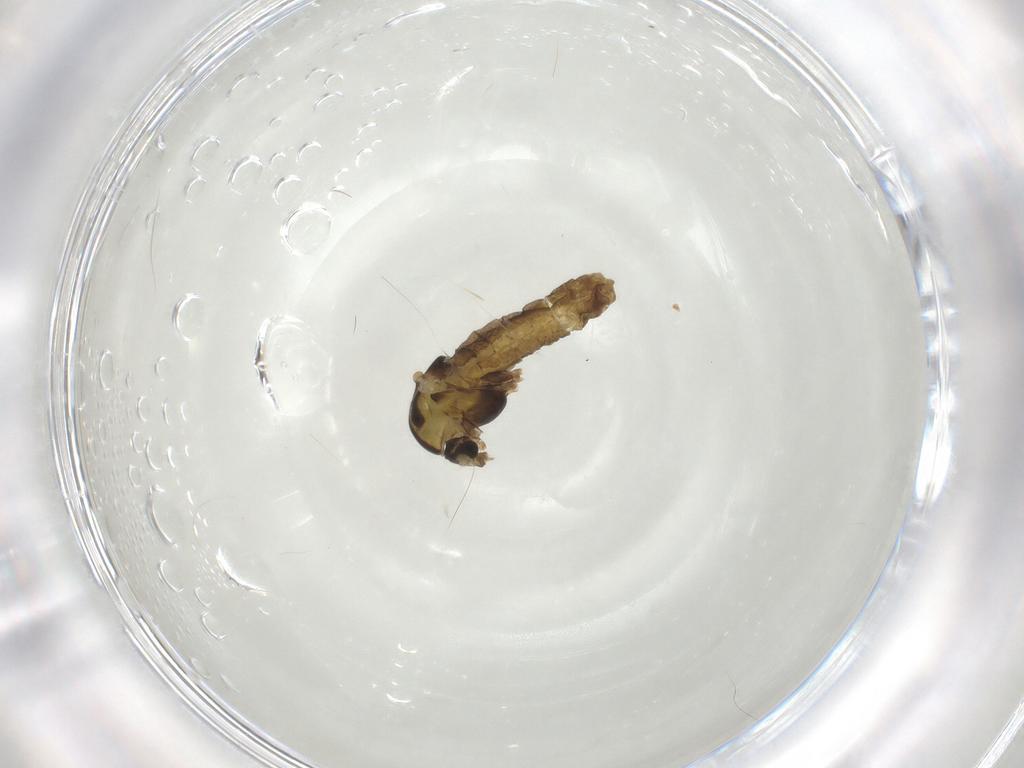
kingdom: Animalia
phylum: Arthropoda
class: Insecta
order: Diptera
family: Chironomidae
